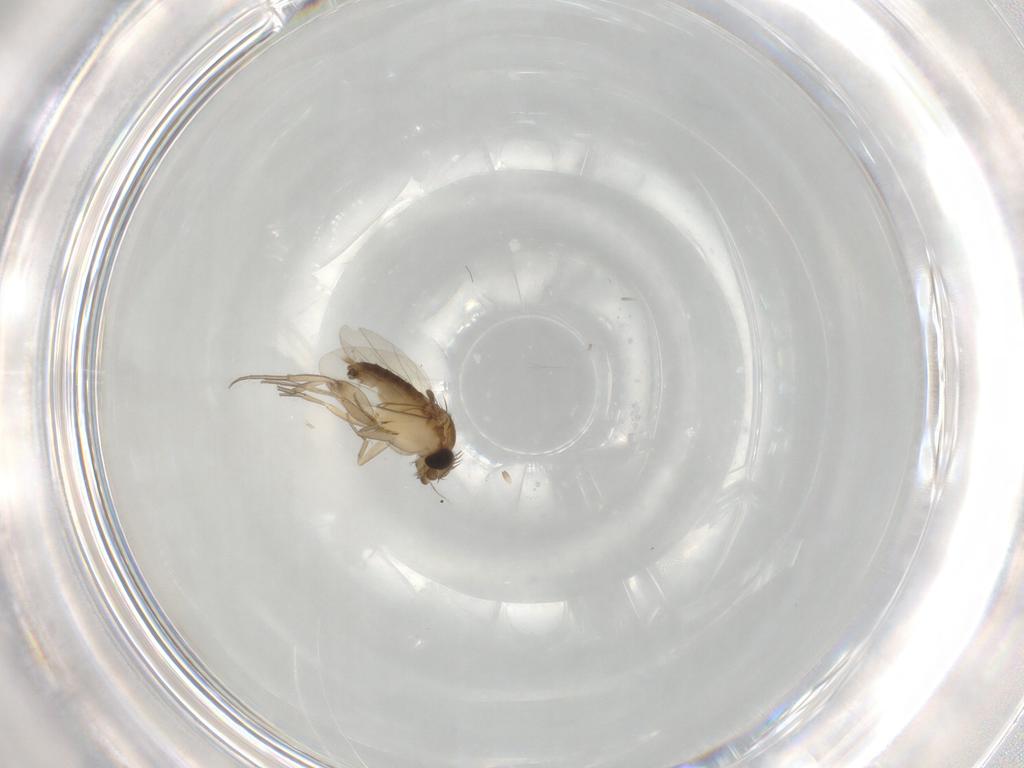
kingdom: Animalia
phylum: Arthropoda
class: Insecta
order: Diptera
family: Phoridae
